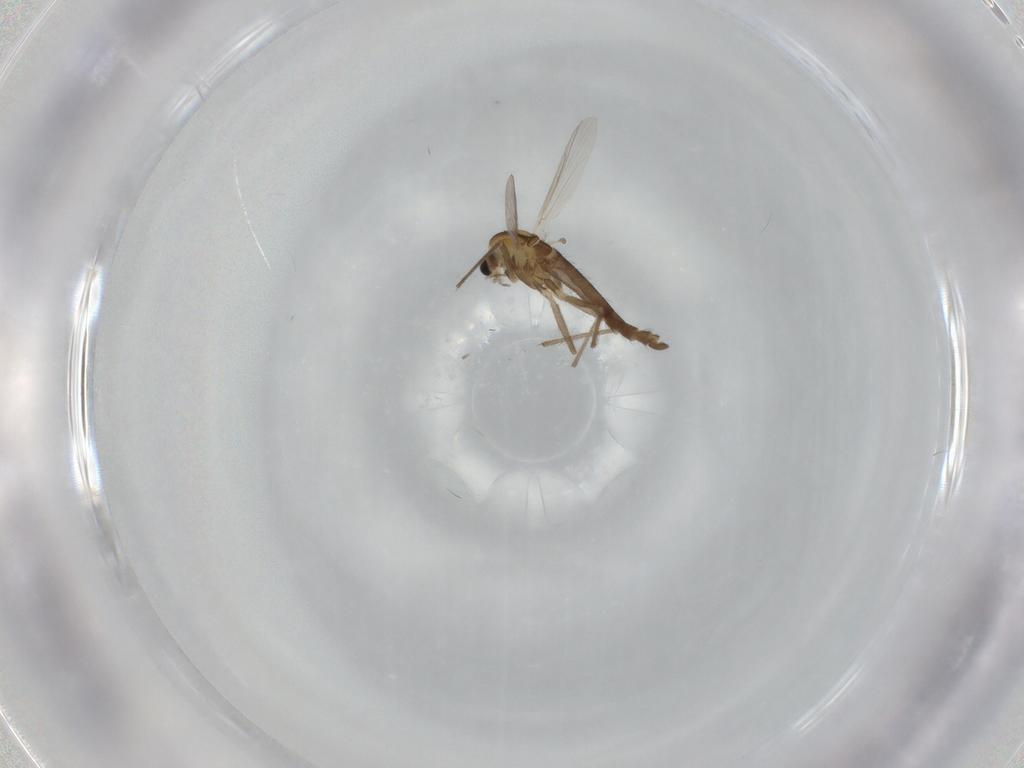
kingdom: Animalia
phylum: Arthropoda
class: Insecta
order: Diptera
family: Chironomidae
